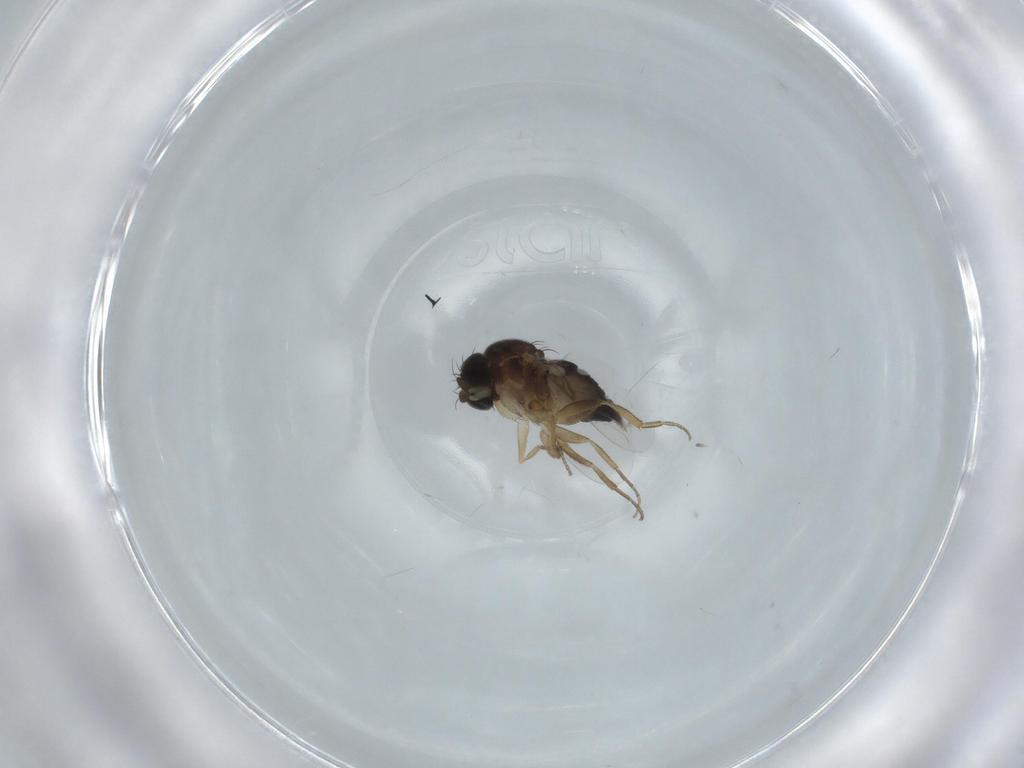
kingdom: Animalia
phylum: Arthropoda
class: Insecta
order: Diptera
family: Phoridae
